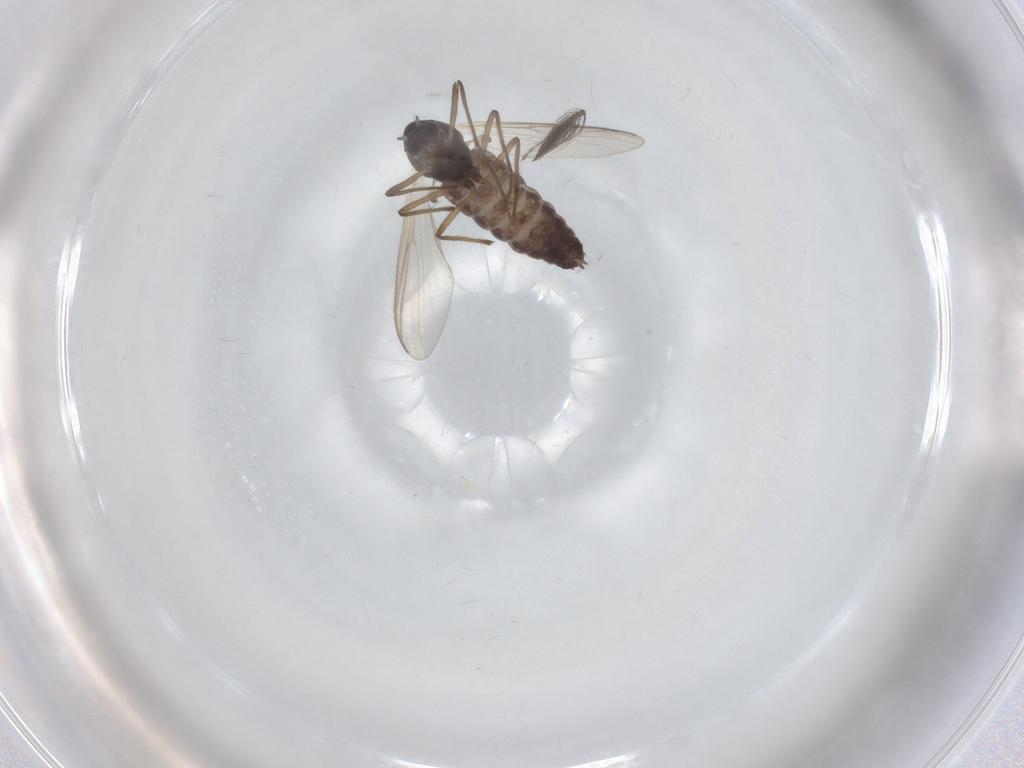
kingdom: Animalia
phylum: Arthropoda
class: Insecta
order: Diptera
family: Chironomidae
